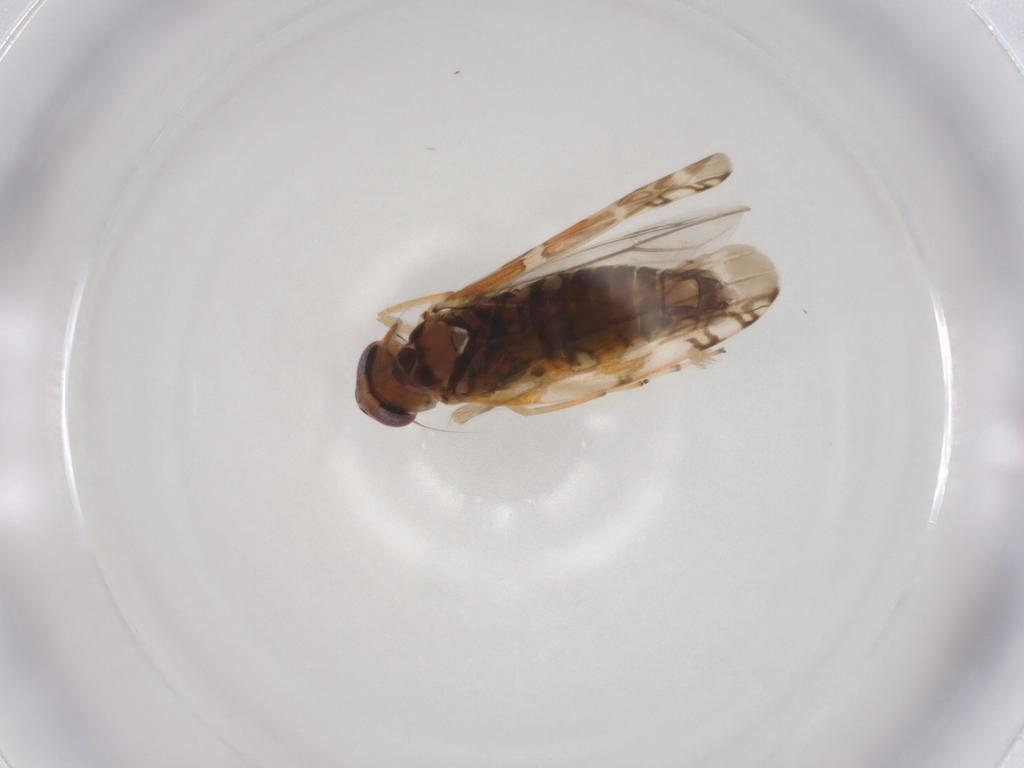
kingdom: Animalia
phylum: Arthropoda
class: Insecta
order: Hemiptera
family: Cicadellidae
